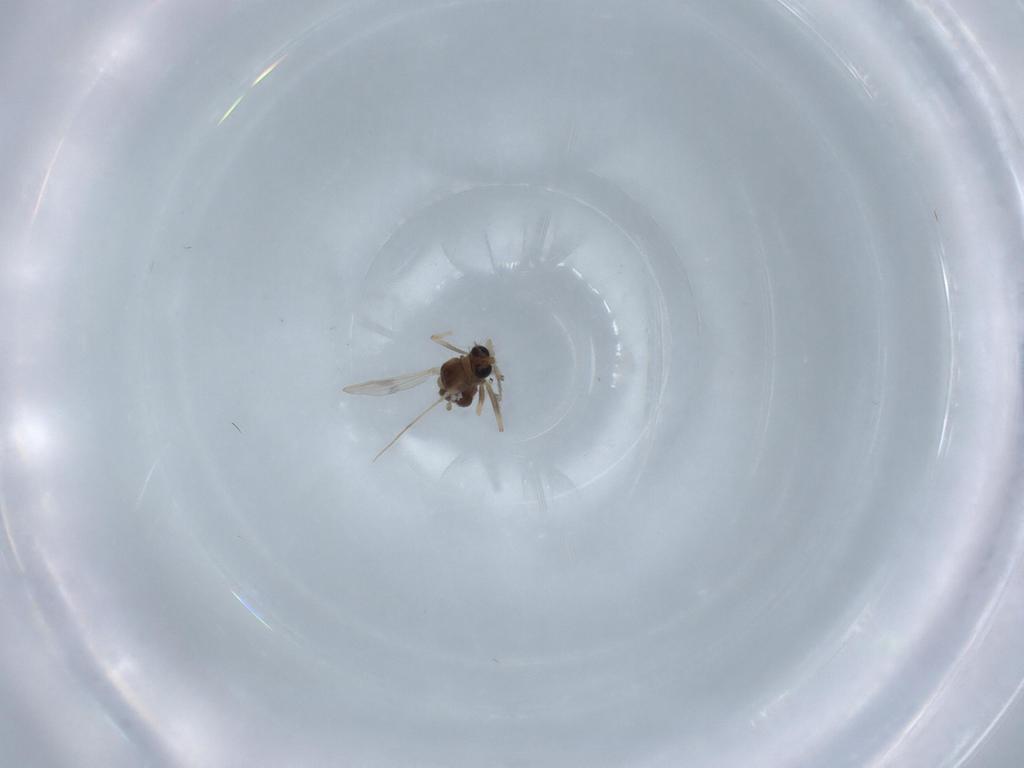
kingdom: Animalia
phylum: Arthropoda
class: Insecta
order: Diptera
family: Chironomidae
